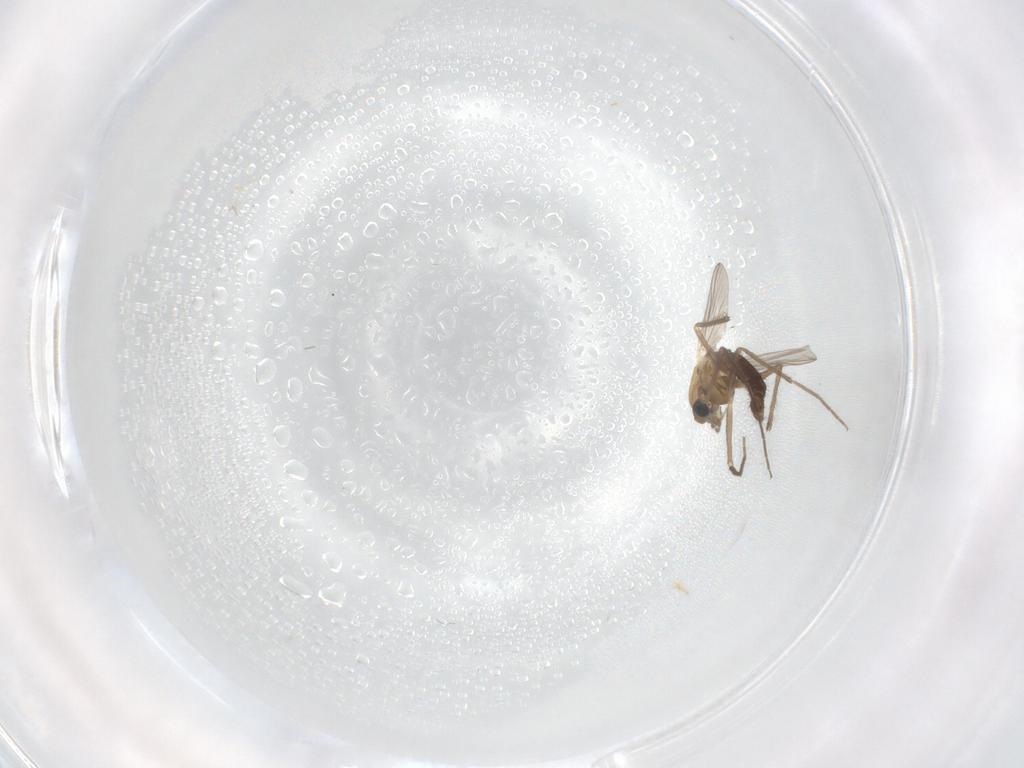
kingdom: Animalia
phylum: Arthropoda
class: Insecta
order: Diptera
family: Chironomidae
